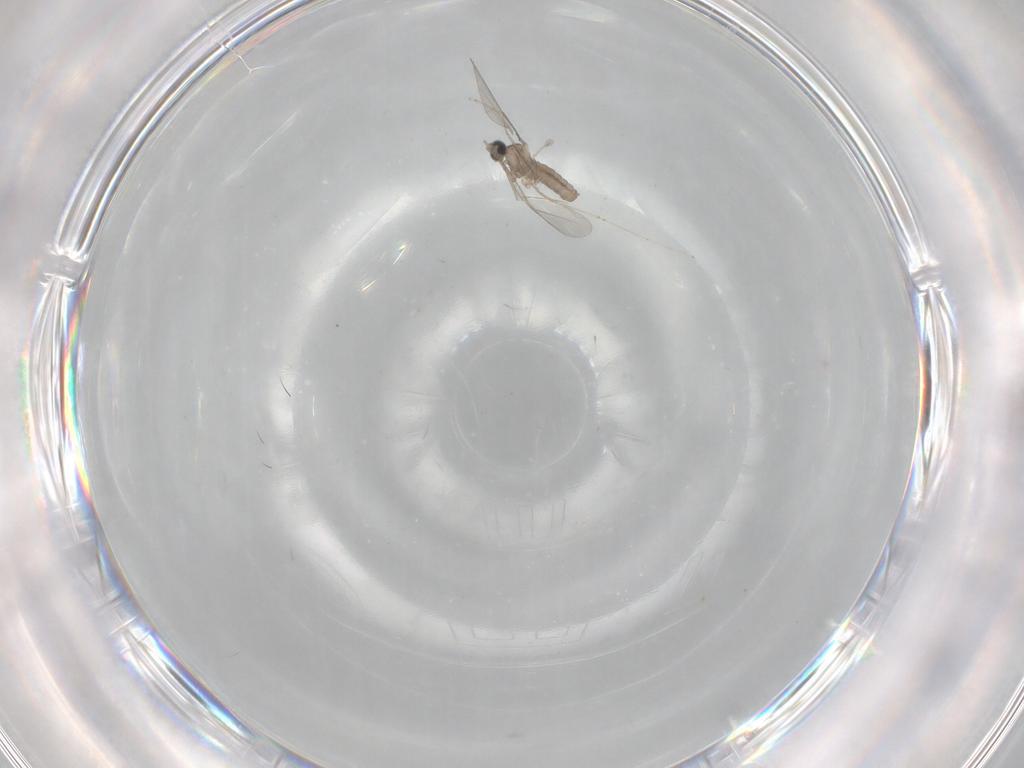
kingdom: Animalia
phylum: Arthropoda
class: Insecta
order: Diptera
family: Cecidomyiidae
